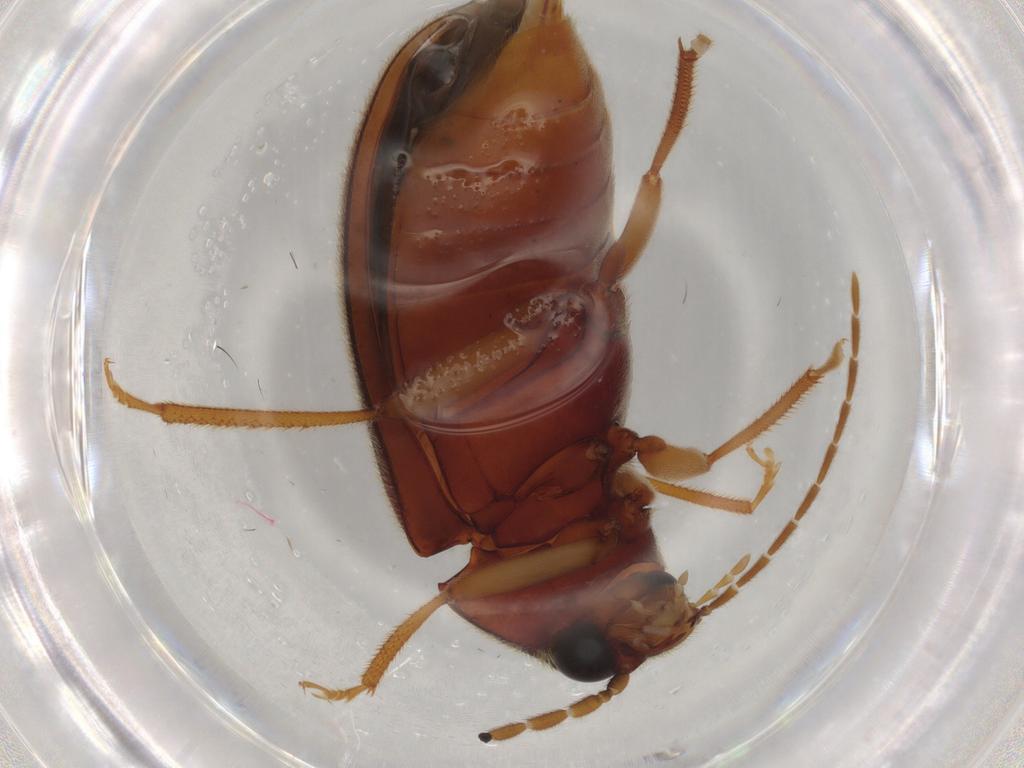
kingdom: Animalia
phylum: Arthropoda
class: Insecta
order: Coleoptera
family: Ptilodactylidae
